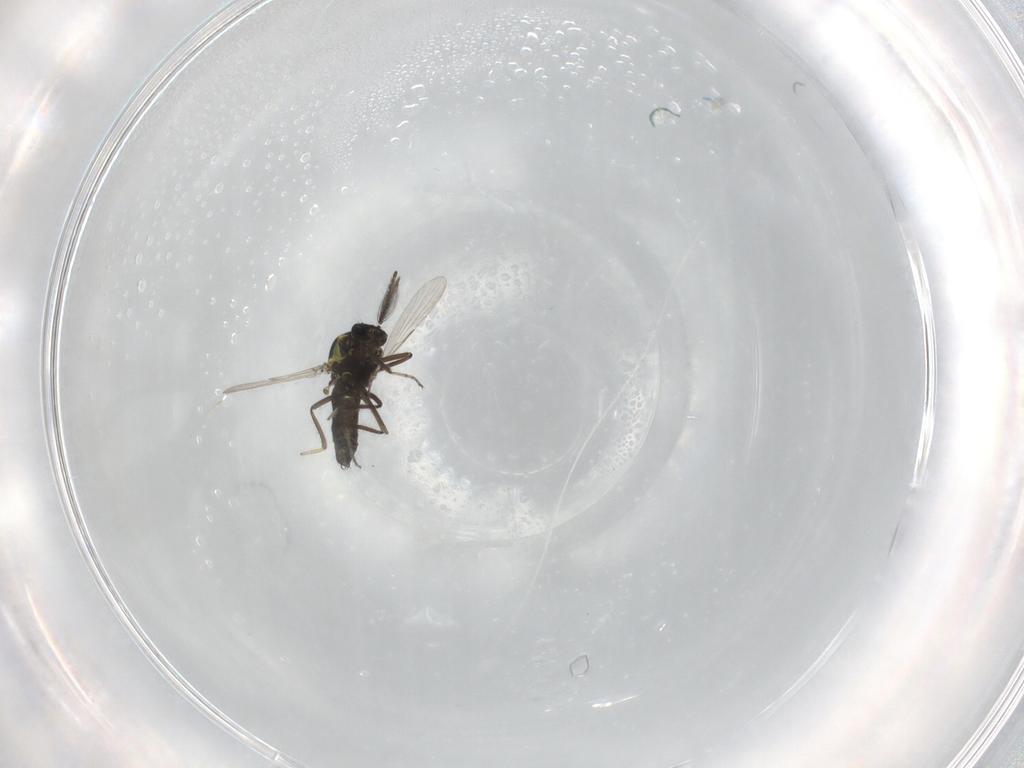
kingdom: Animalia
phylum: Arthropoda
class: Insecta
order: Diptera
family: Ceratopogonidae
